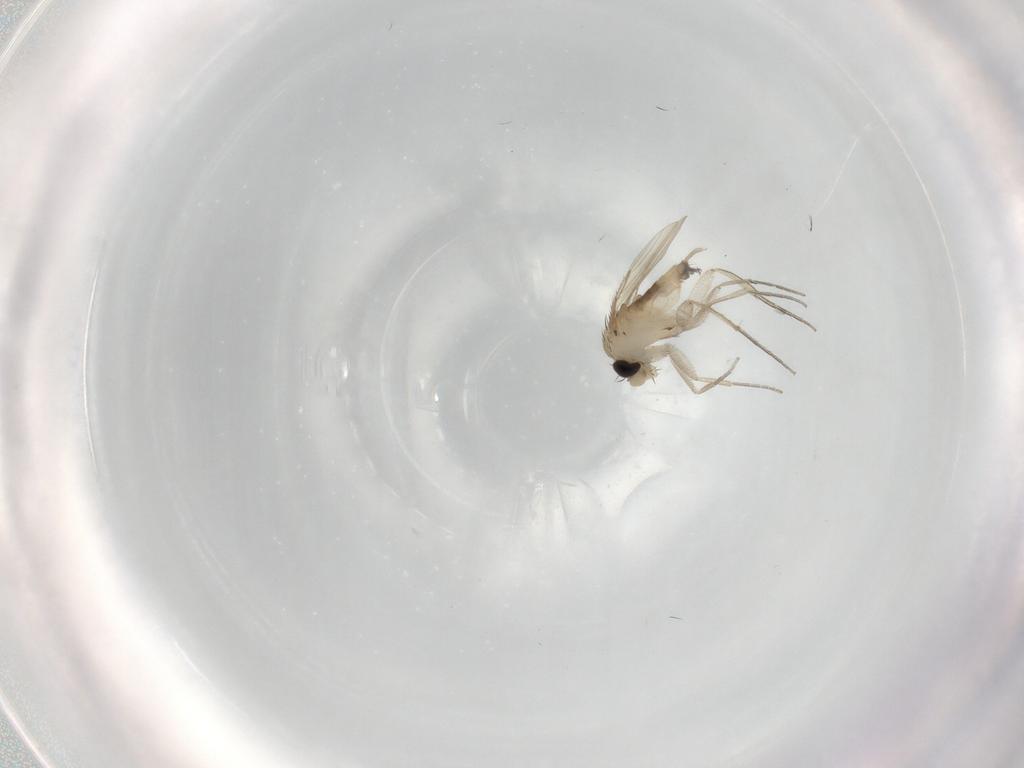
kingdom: Animalia
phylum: Arthropoda
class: Insecta
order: Diptera
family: Phoridae
